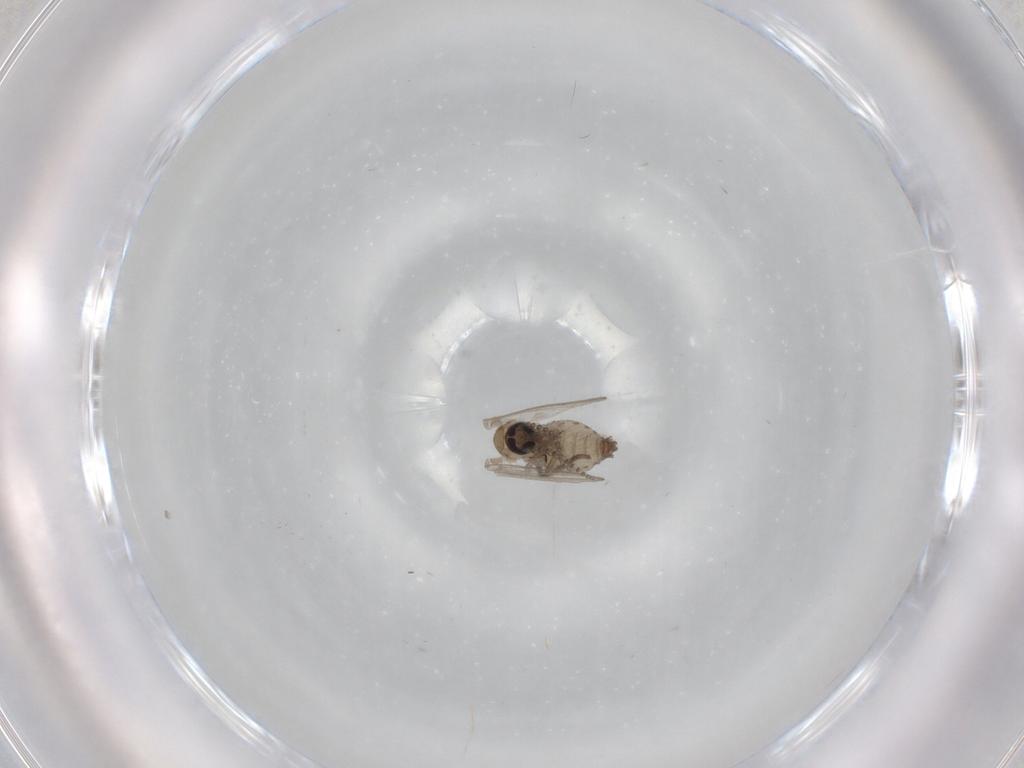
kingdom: Animalia
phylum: Arthropoda
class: Insecta
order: Diptera
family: Psychodidae
